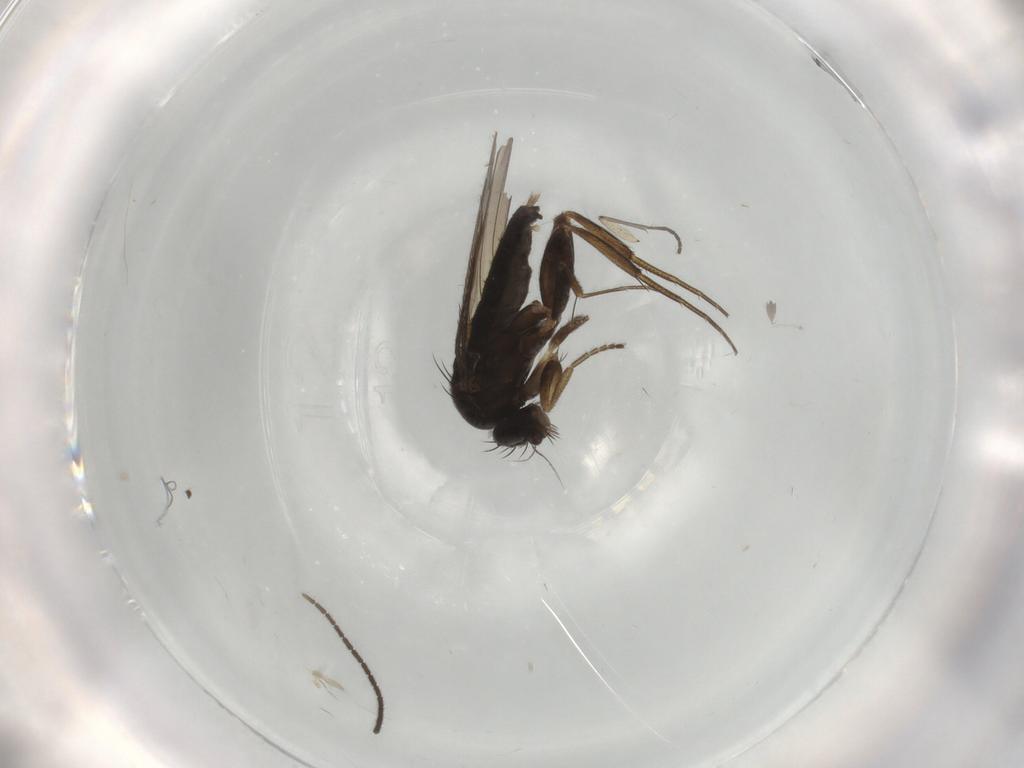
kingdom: Animalia
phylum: Arthropoda
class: Insecta
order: Diptera
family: Phoridae
